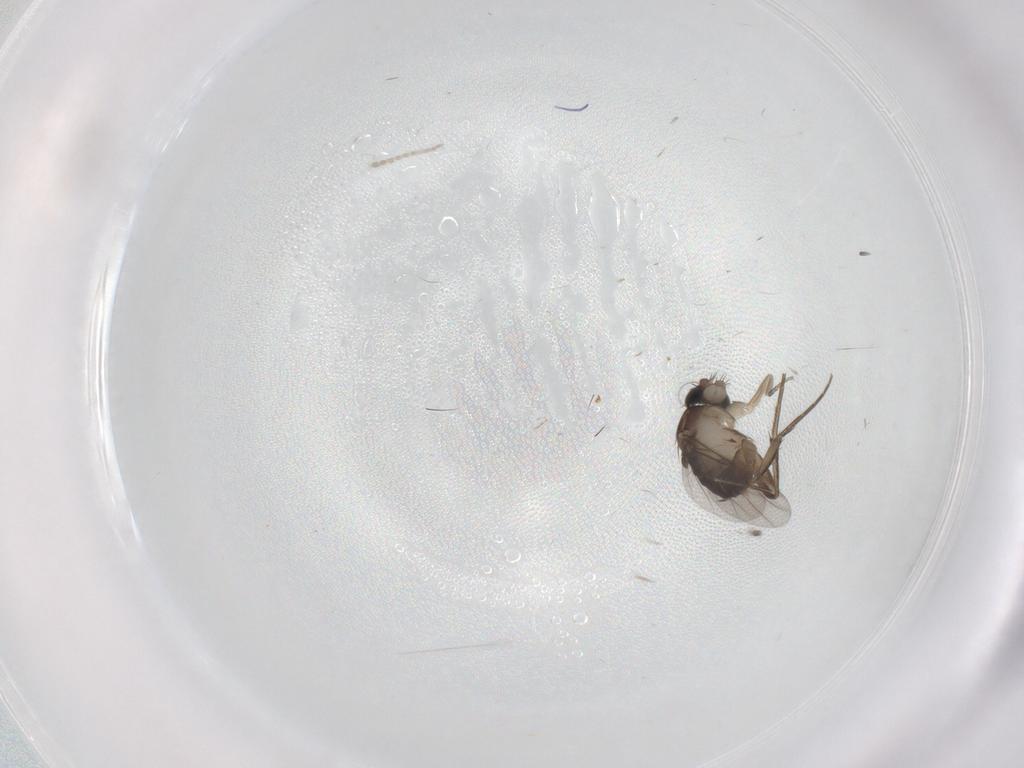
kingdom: Animalia
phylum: Arthropoda
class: Insecta
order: Diptera
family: Phoridae
